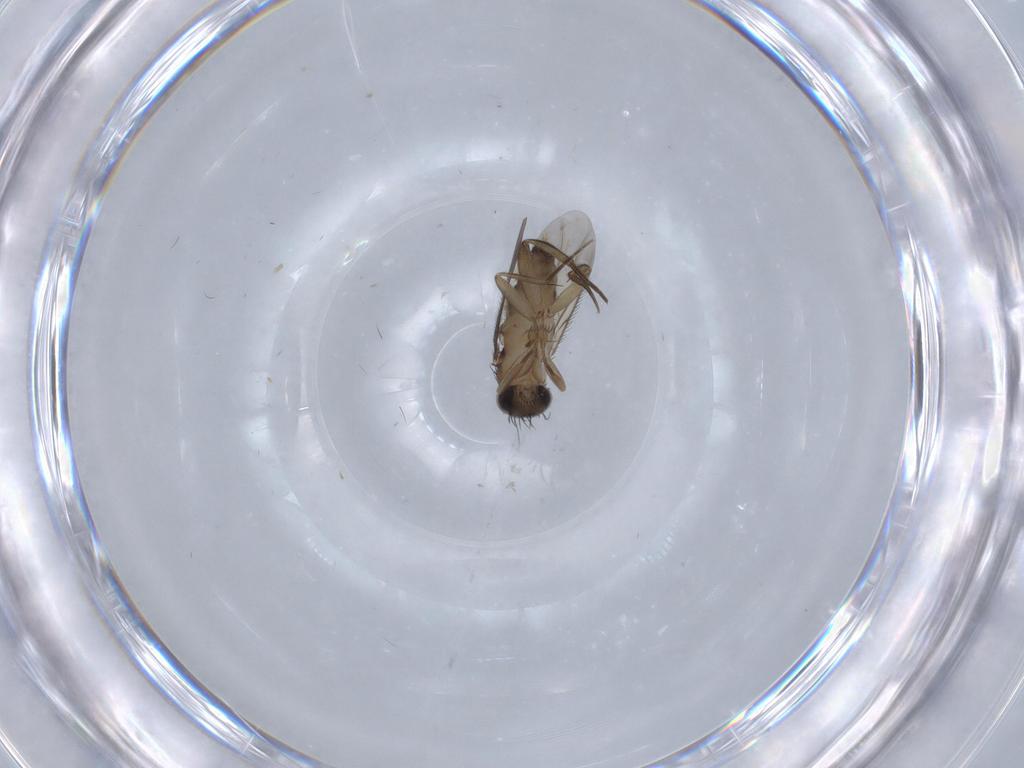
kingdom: Animalia
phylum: Arthropoda
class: Insecta
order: Diptera
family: Phoridae
